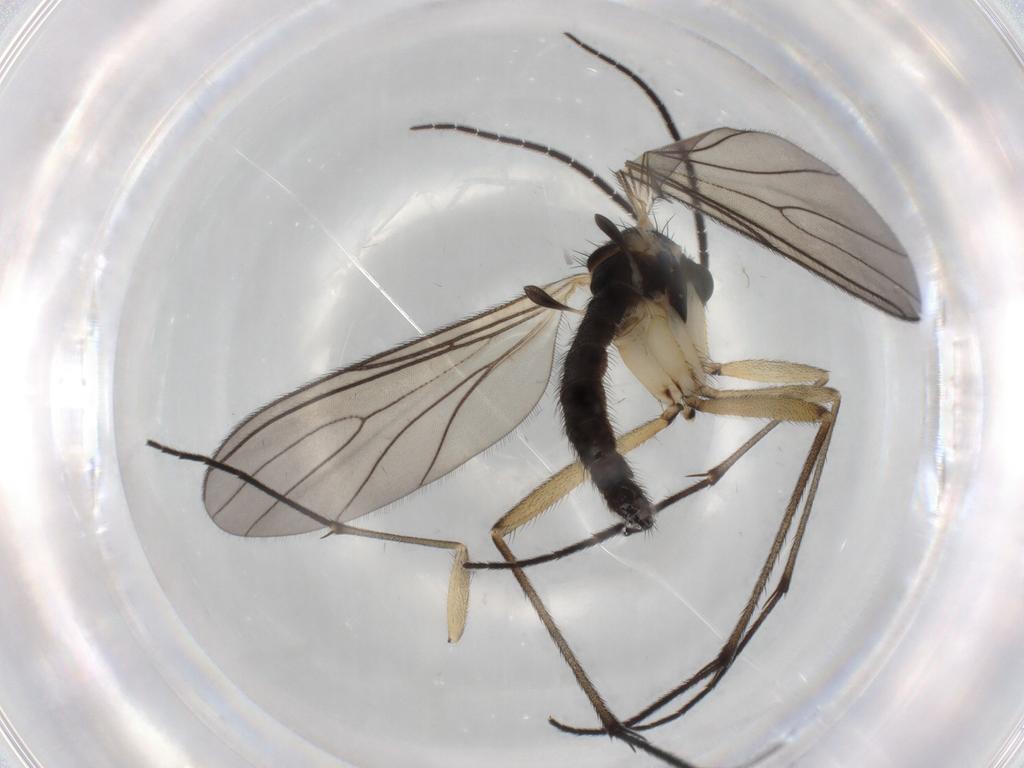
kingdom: Animalia
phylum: Arthropoda
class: Insecta
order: Diptera
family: Sciaridae
